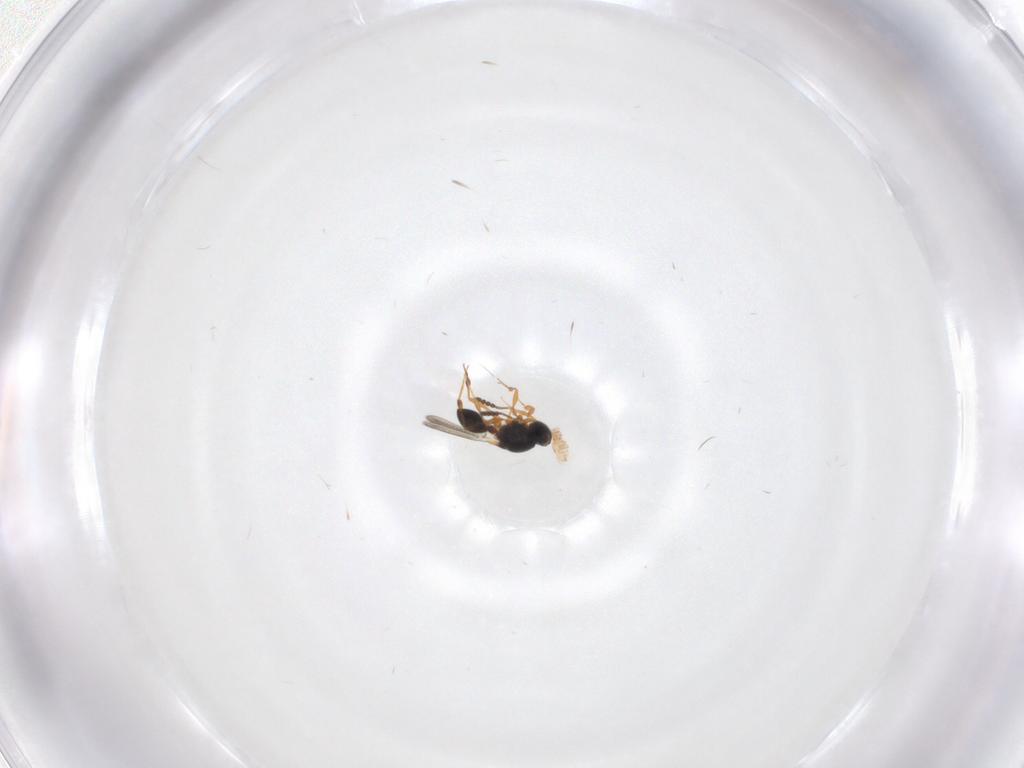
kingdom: Animalia
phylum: Arthropoda
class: Insecta
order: Hymenoptera
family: Platygastridae
